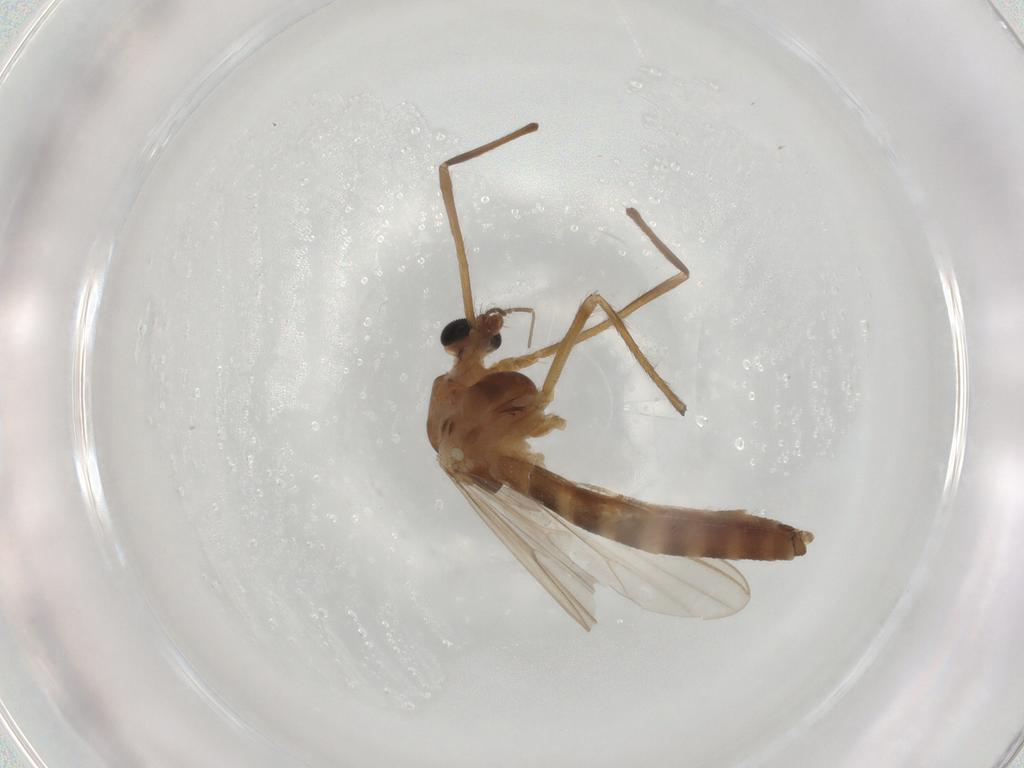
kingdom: Animalia
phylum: Arthropoda
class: Insecta
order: Diptera
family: Chironomidae
